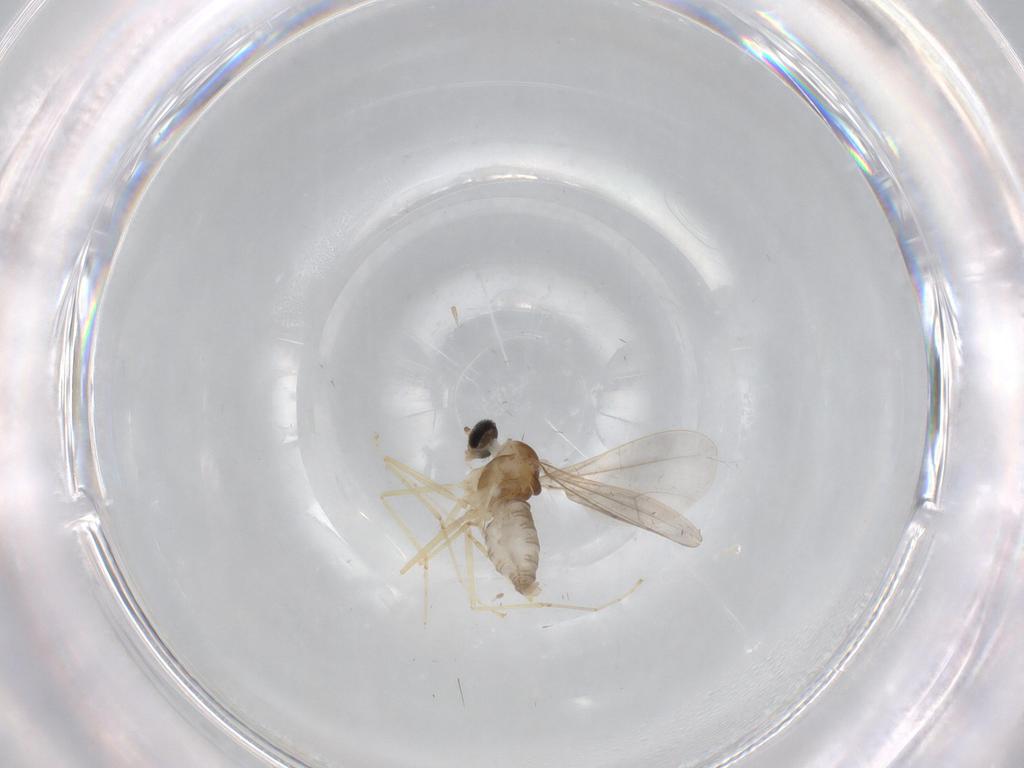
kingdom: Animalia
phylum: Arthropoda
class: Insecta
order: Diptera
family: Cecidomyiidae
